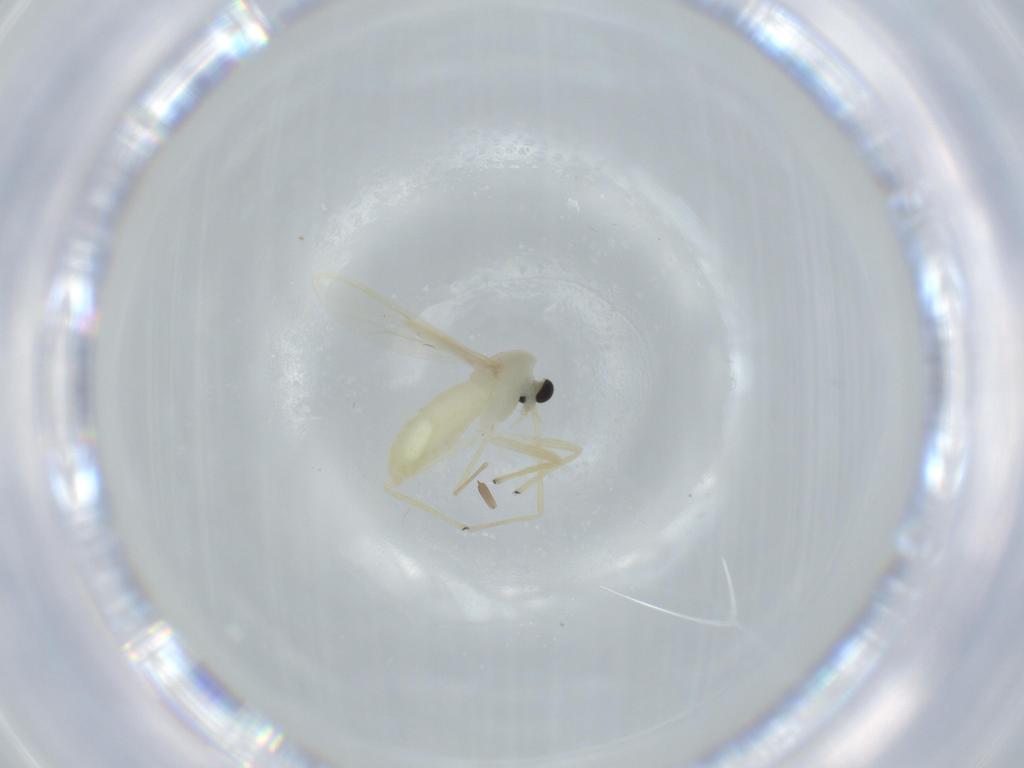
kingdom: Animalia
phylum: Arthropoda
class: Insecta
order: Diptera
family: Chironomidae
